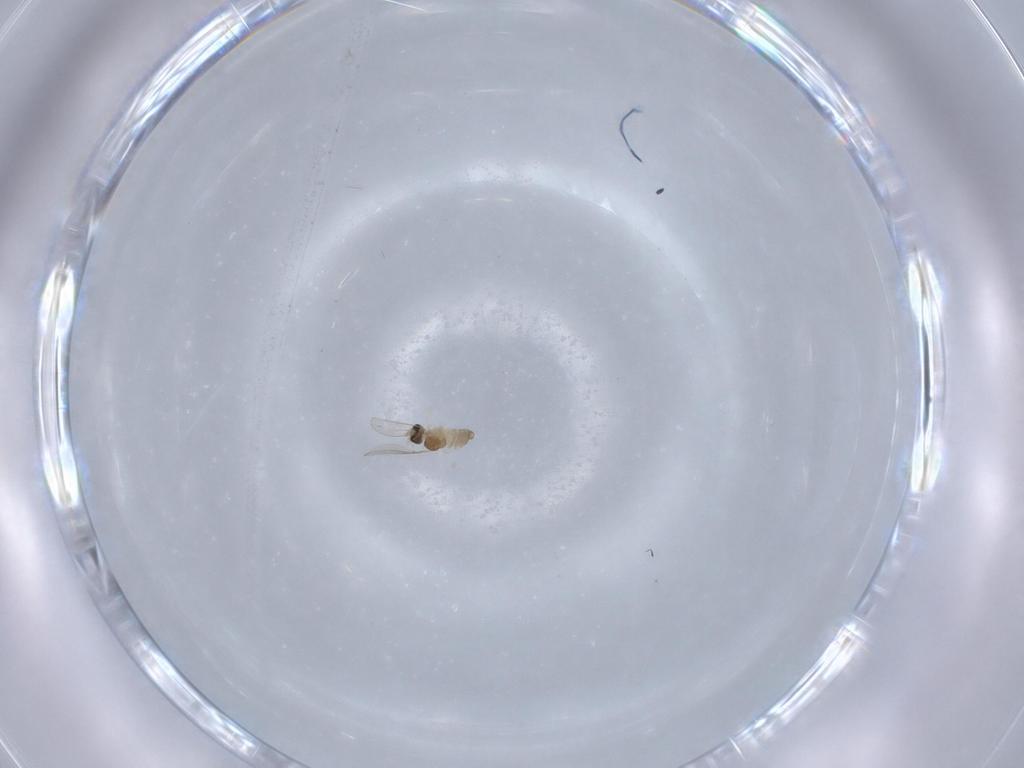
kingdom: Animalia
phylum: Arthropoda
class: Insecta
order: Diptera
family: Cecidomyiidae
